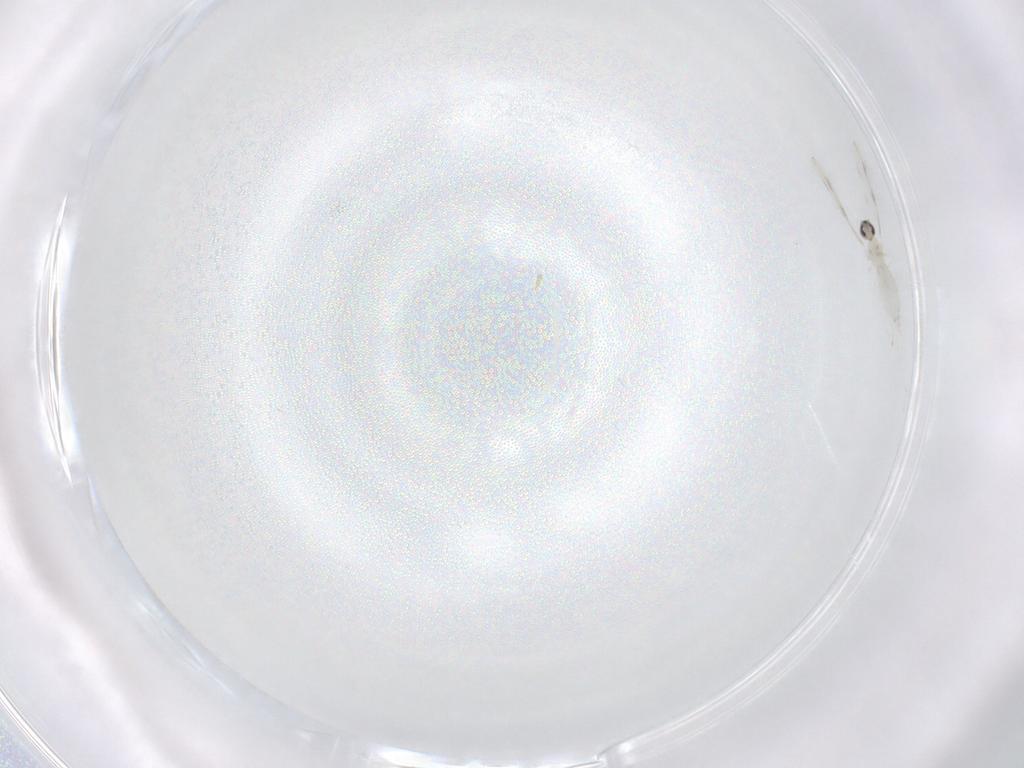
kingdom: Animalia
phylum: Arthropoda
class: Insecta
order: Diptera
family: Cecidomyiidae
